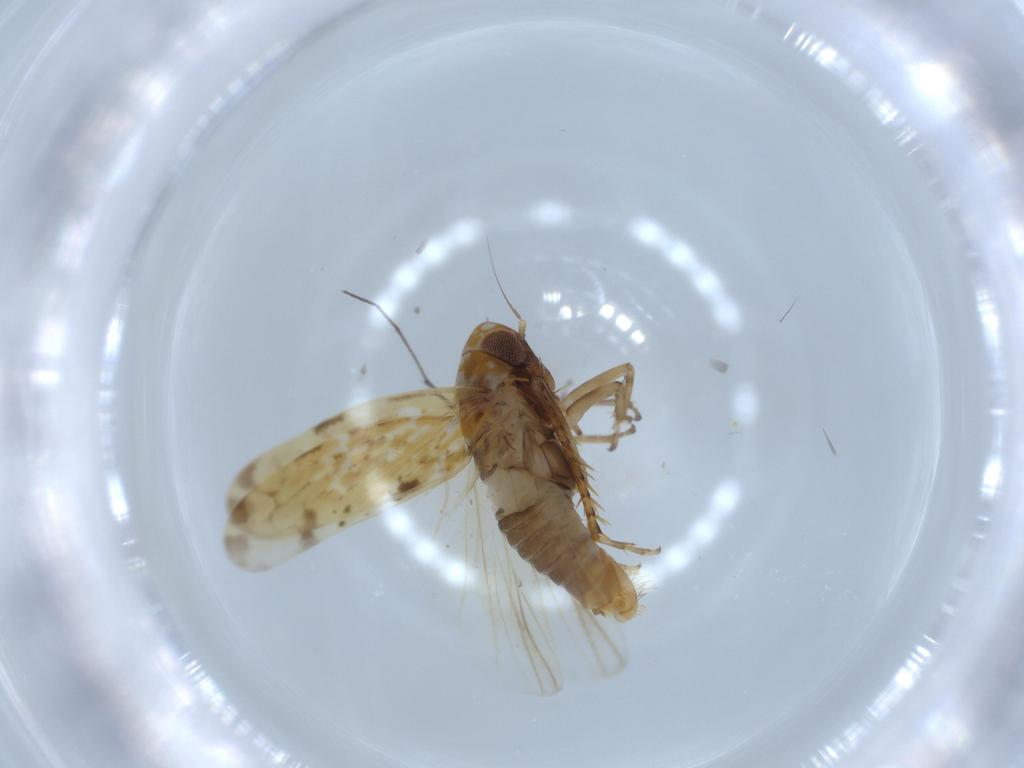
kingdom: Animalia
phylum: Arthropoda
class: Insecta
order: Hemiptera
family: Cicadellidae
